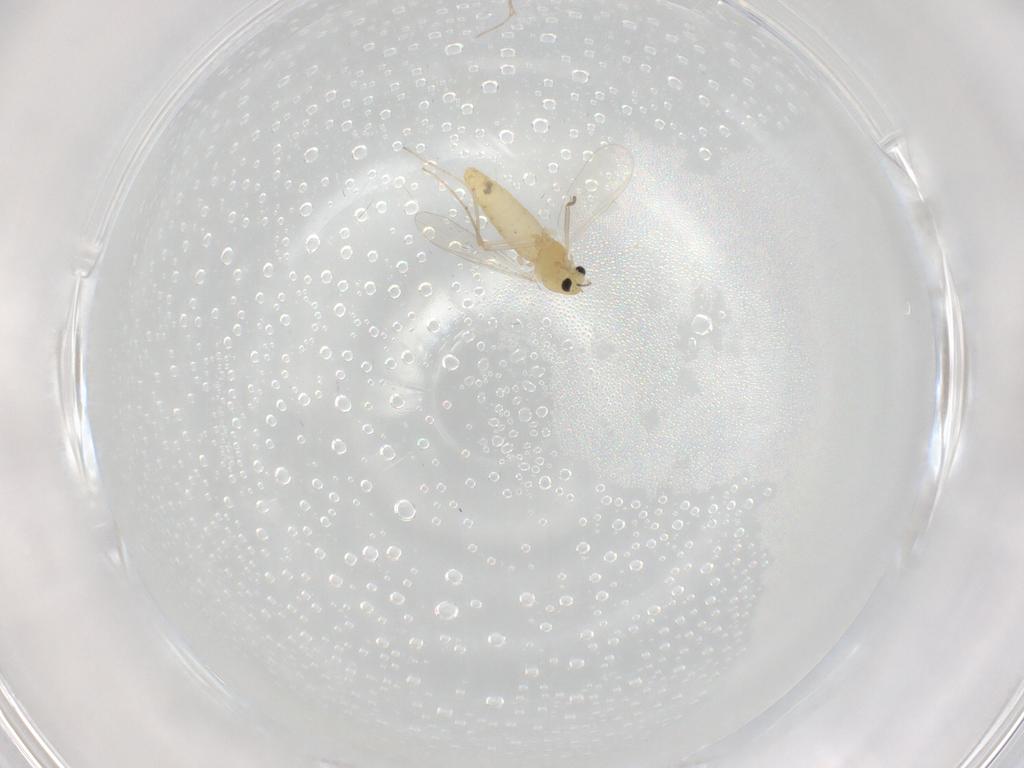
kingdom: Animalia
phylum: Arthropoda
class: Insecta
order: Diptera
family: Chironomidae
